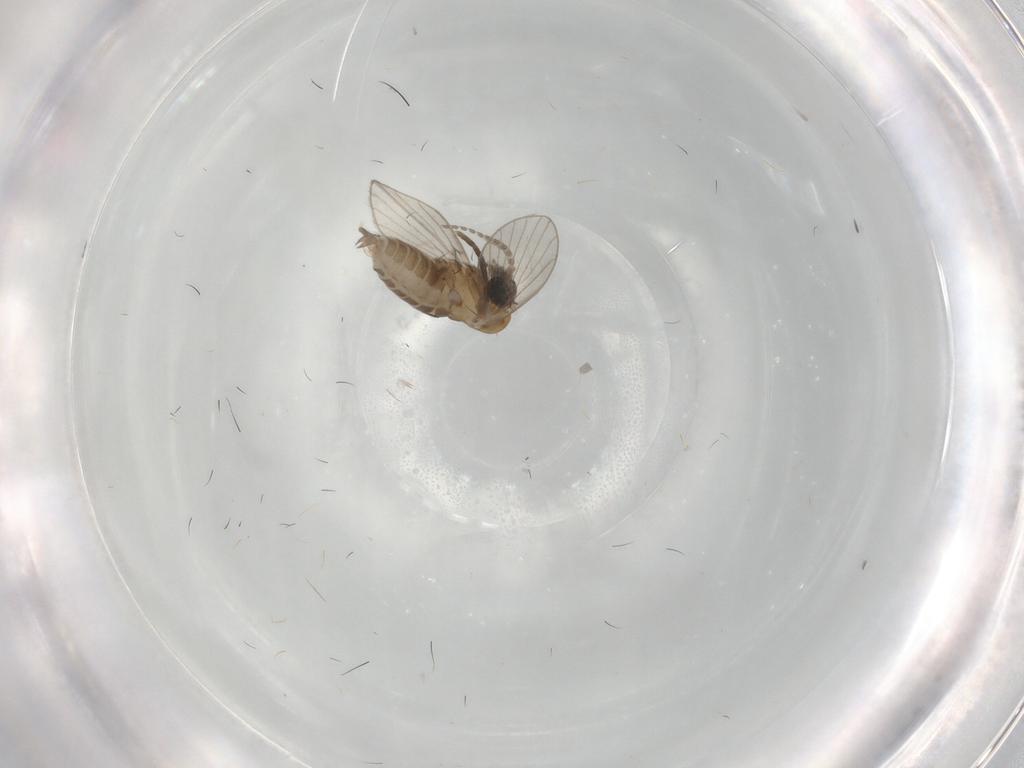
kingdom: Animalia
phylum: Arthropoda
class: Insecta
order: Diptera
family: Psychodidae
